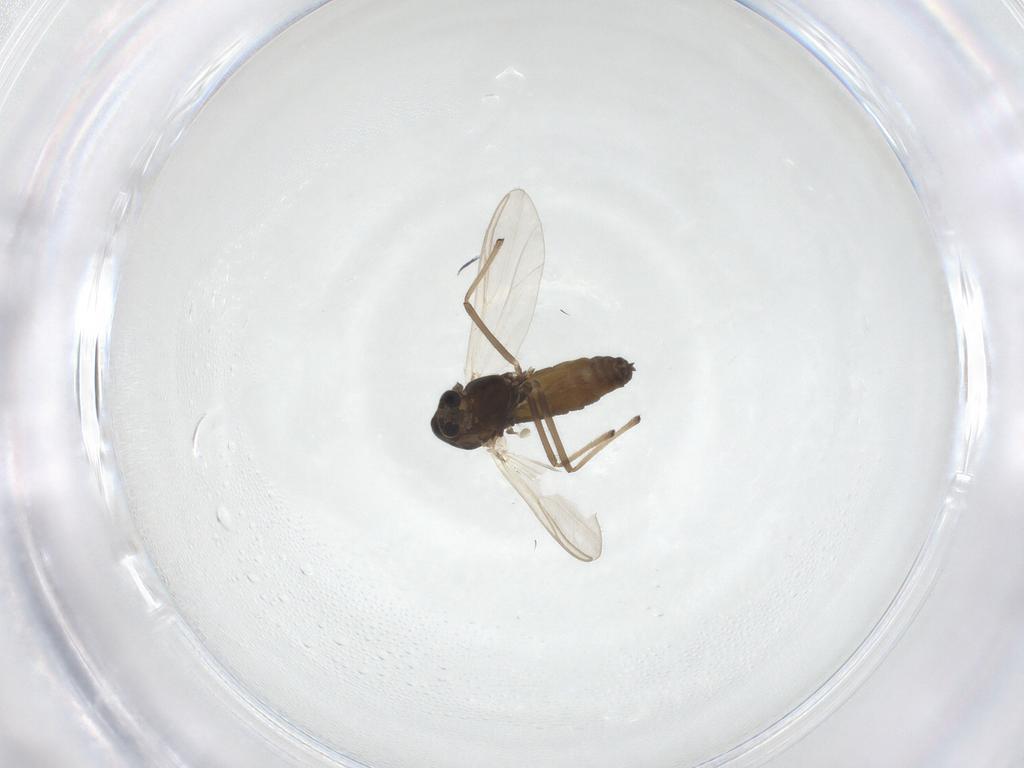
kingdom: Animalia
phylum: Arthropoda
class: Insecta
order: Diptera
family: Chironomidae
